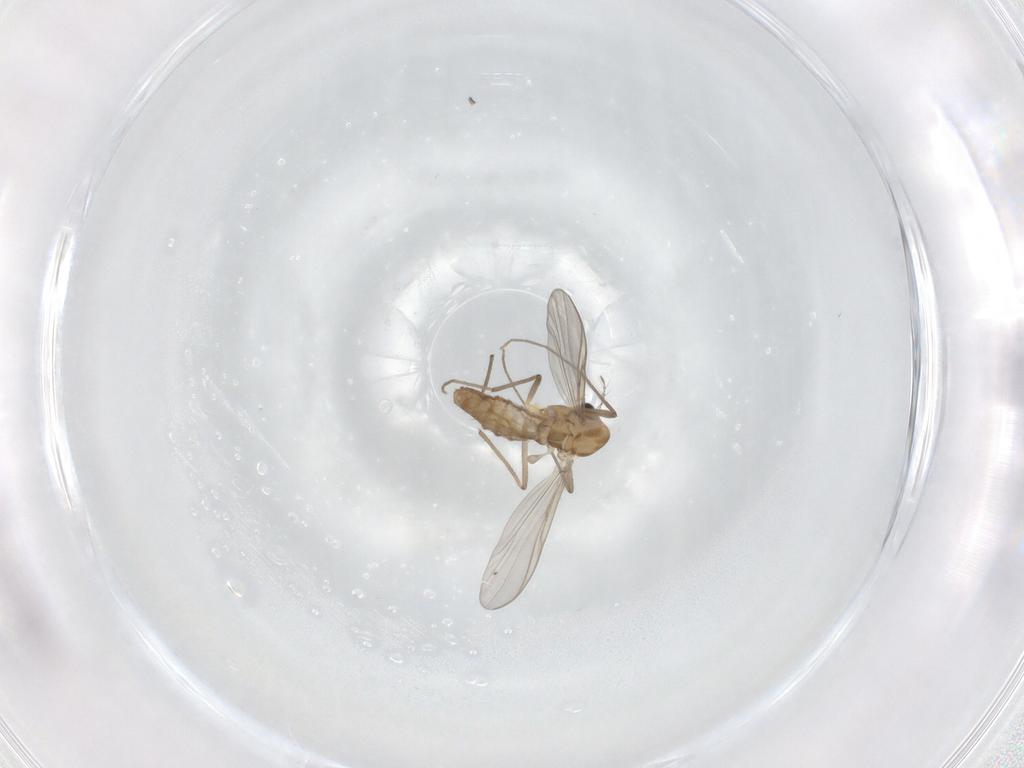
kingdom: Animalia
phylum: Arthropoda
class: Insecta
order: Diptera
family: Chironomidae
